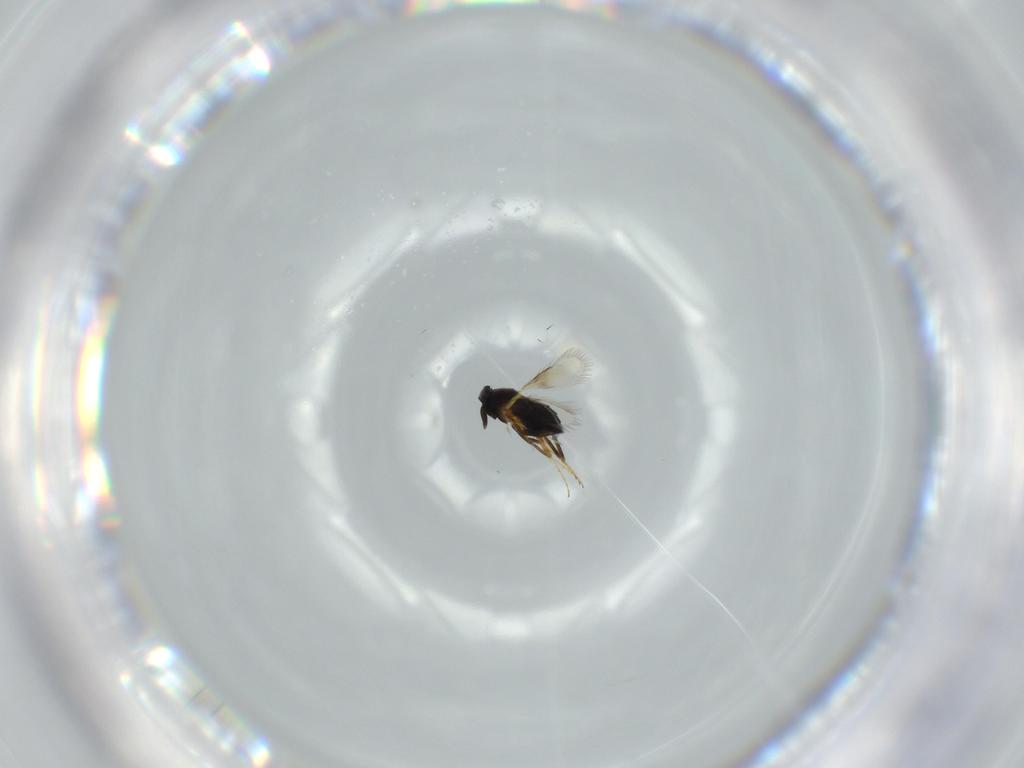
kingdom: Animalia
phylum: Arthropoda
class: Insecta
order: Hymenoptera
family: Signiphoridae
